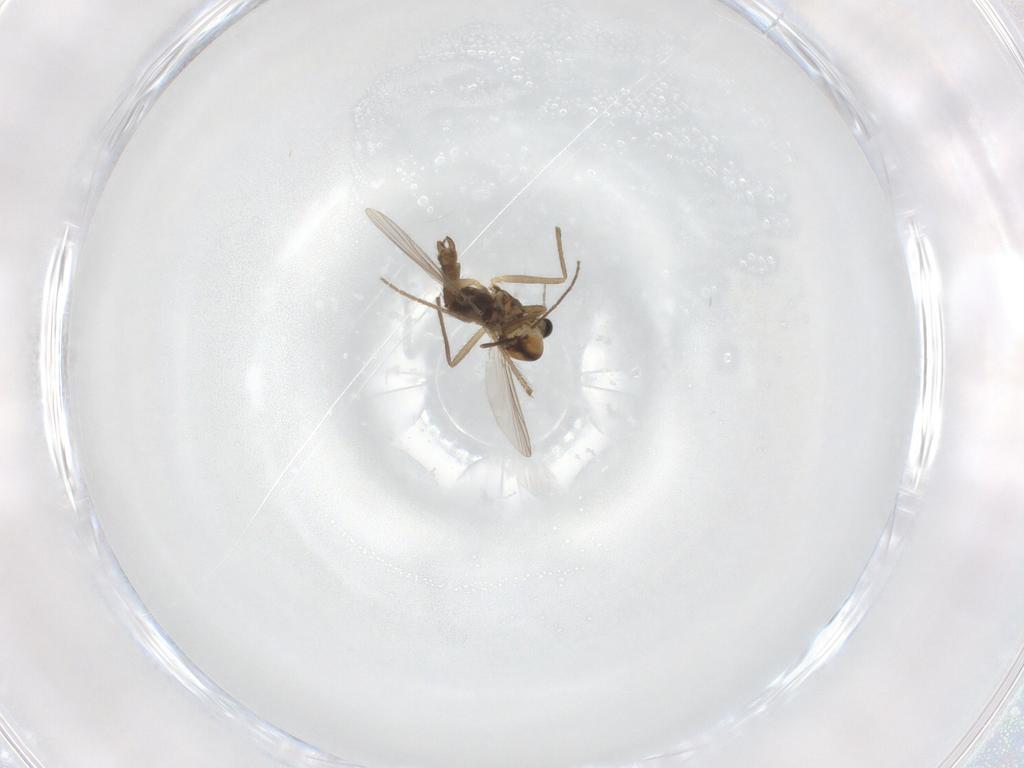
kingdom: Animalia
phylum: Arthropoda
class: Insecta
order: Diptera
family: Chironomidae
